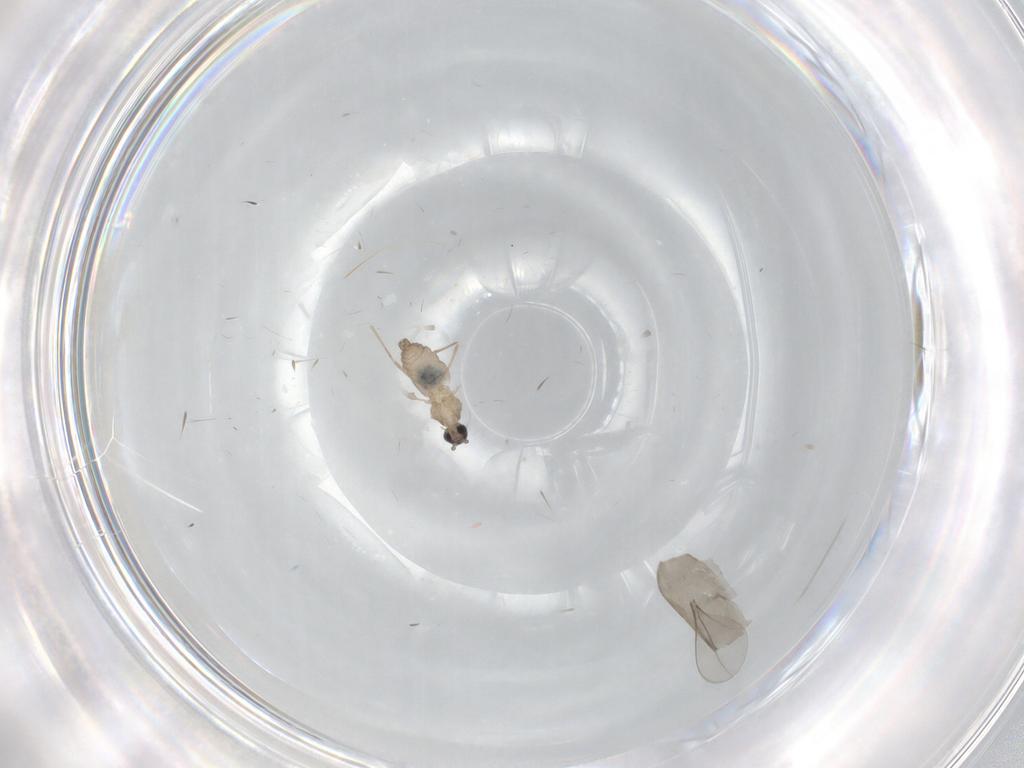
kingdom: Animalia
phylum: Arthropoda
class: Insecta
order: Diptera
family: Cecidomyiidae
